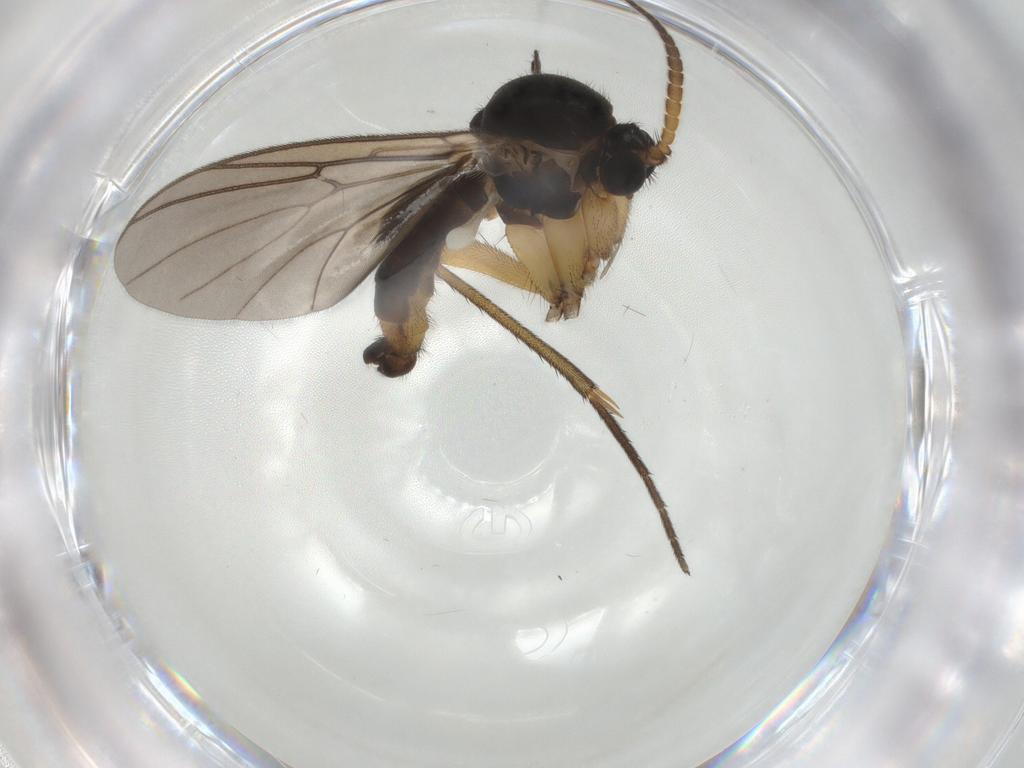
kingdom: Animalia
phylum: Arthropoda
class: Insecta
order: Diptera
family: Cecidomyiidae
